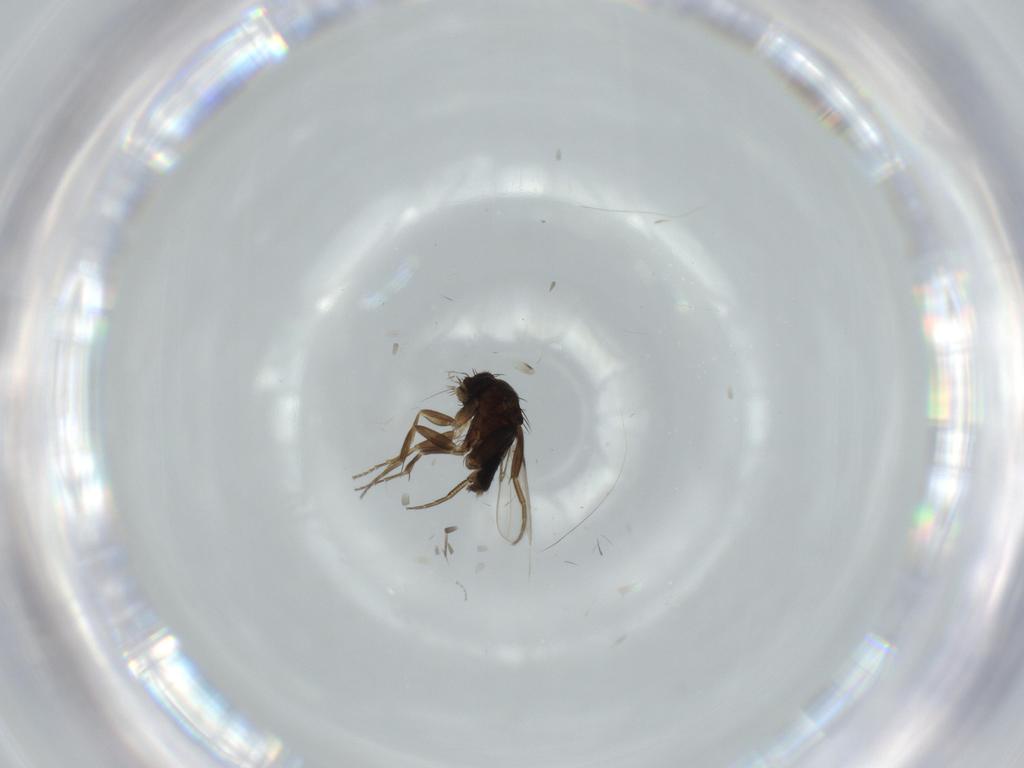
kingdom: Animalia
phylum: Arthropoda
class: Insecta
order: Diptera
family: Phoridae
